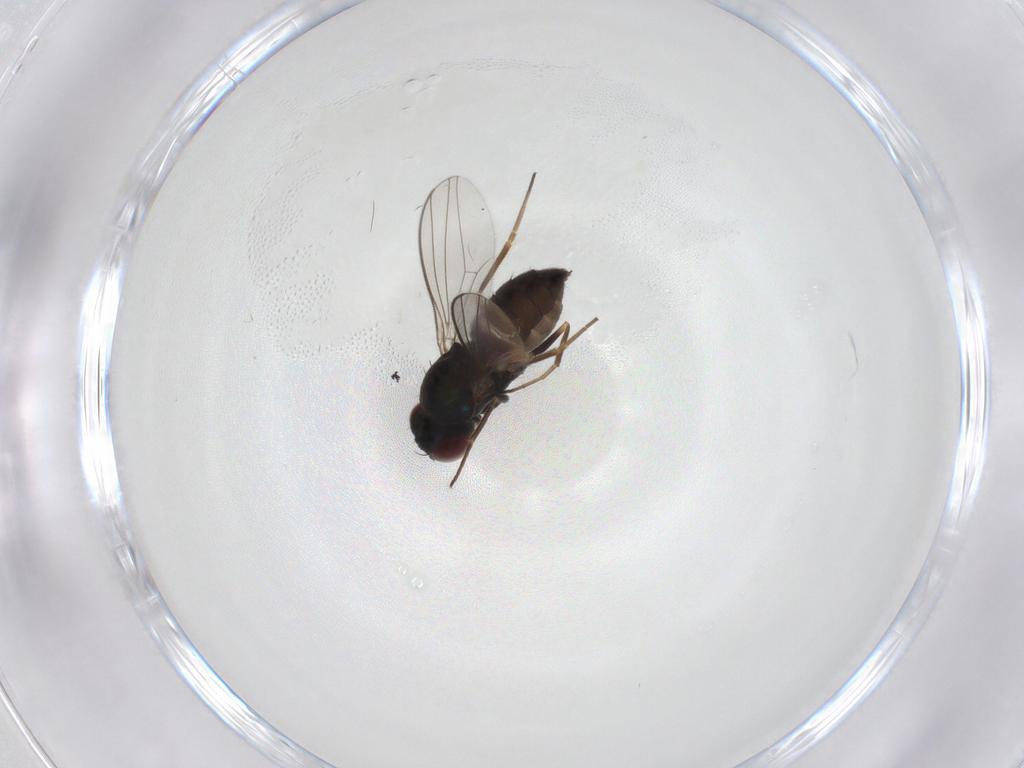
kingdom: Animalia
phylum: Arthropoda
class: Insecta
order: Diptera
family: Dolichopodidae
